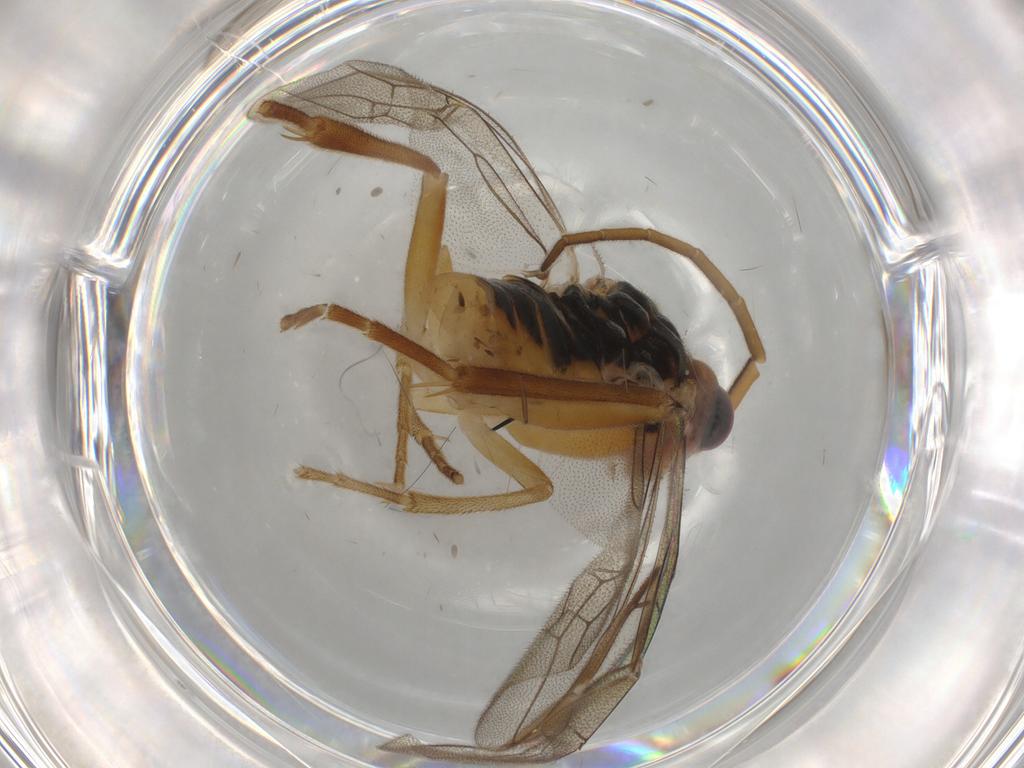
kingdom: Animalia
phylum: Arthropoda
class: Insecta
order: Hymenoptera
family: Tenthredinidae
